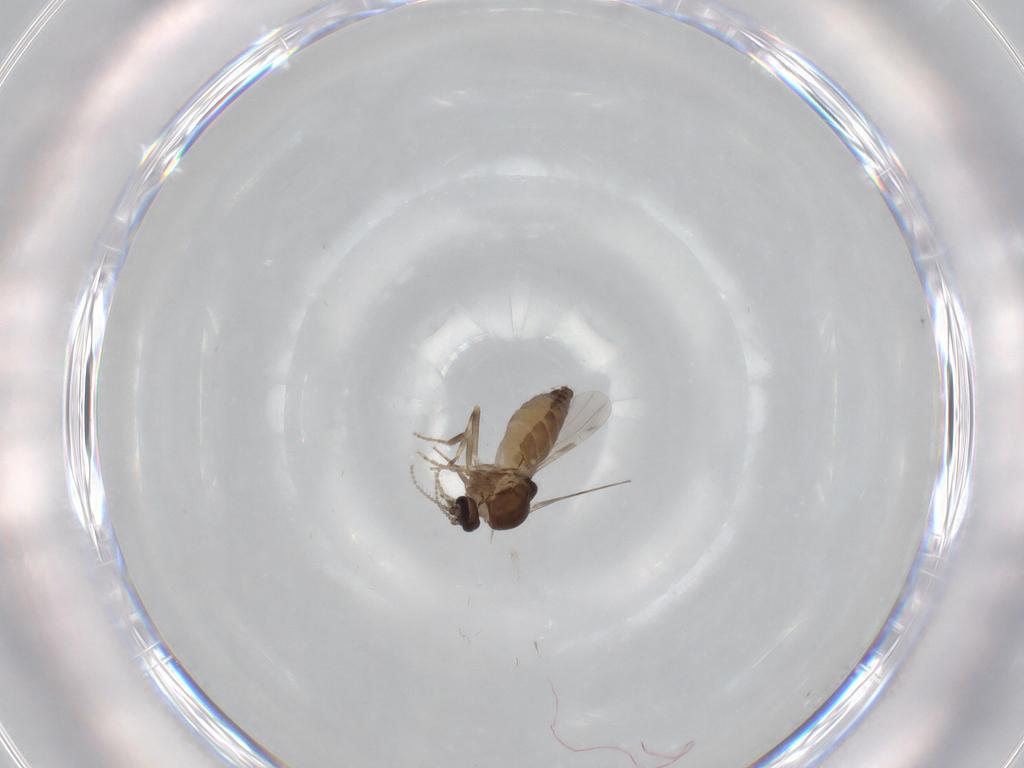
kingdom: Animalia
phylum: Arthropoda
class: Insecta
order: Diptera
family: Ceratopogonidae
